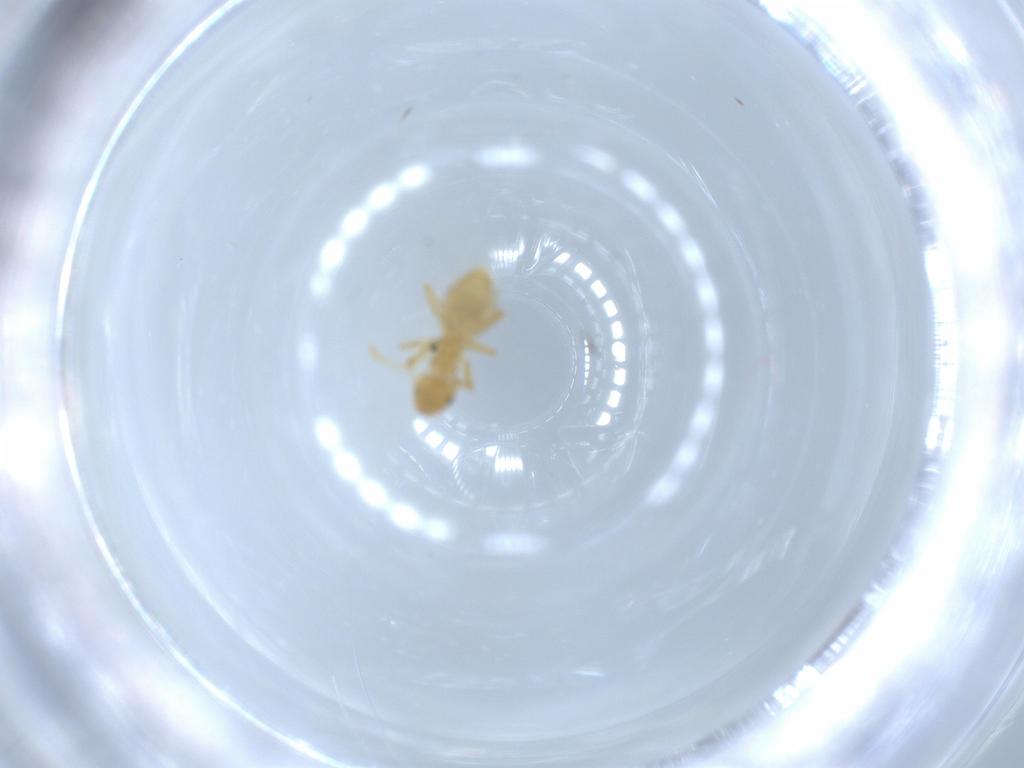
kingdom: Animalia
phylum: Arthropoda
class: Insecta
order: Hymenoptera
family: Formicidae
